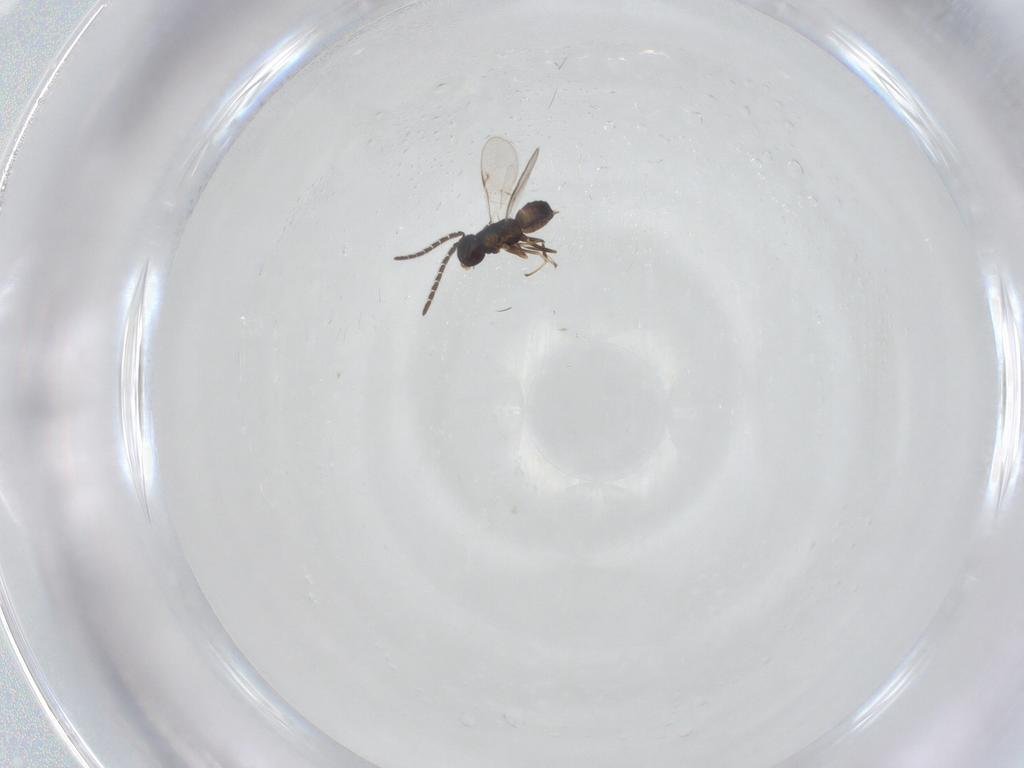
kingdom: Animalia
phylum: Arthropoda
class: Insecta
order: Hymenoptera
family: Encyrtidae
